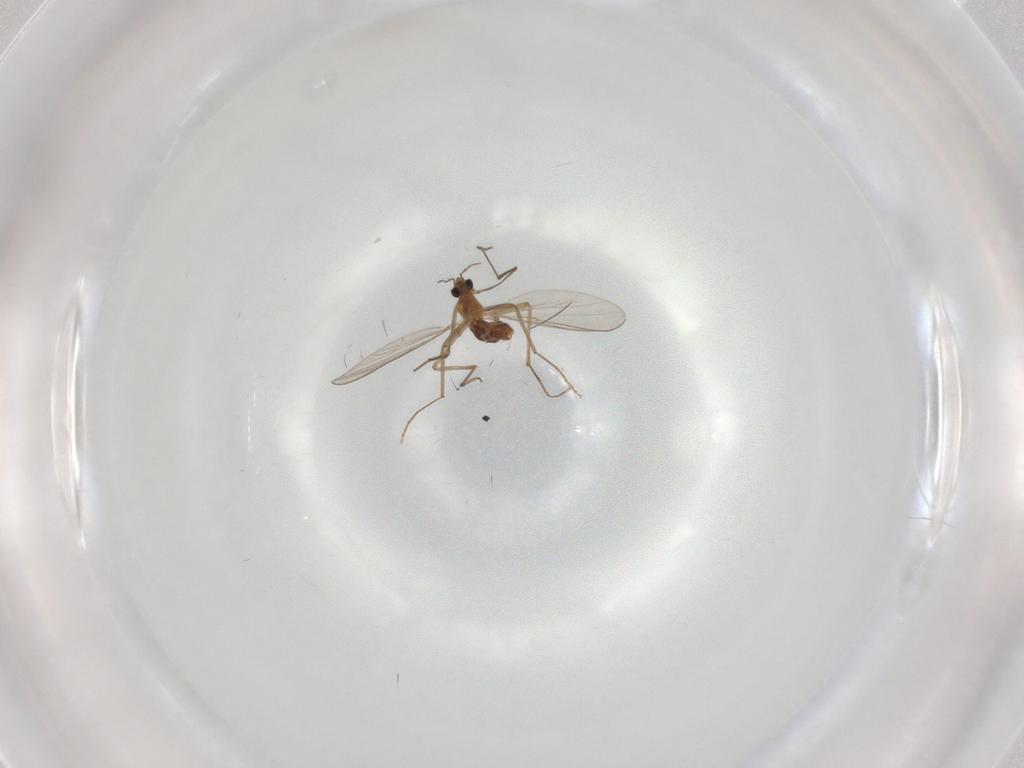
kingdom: Animalia
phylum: Arthropoda
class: Insecta
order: Diptera
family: Chironomidae
